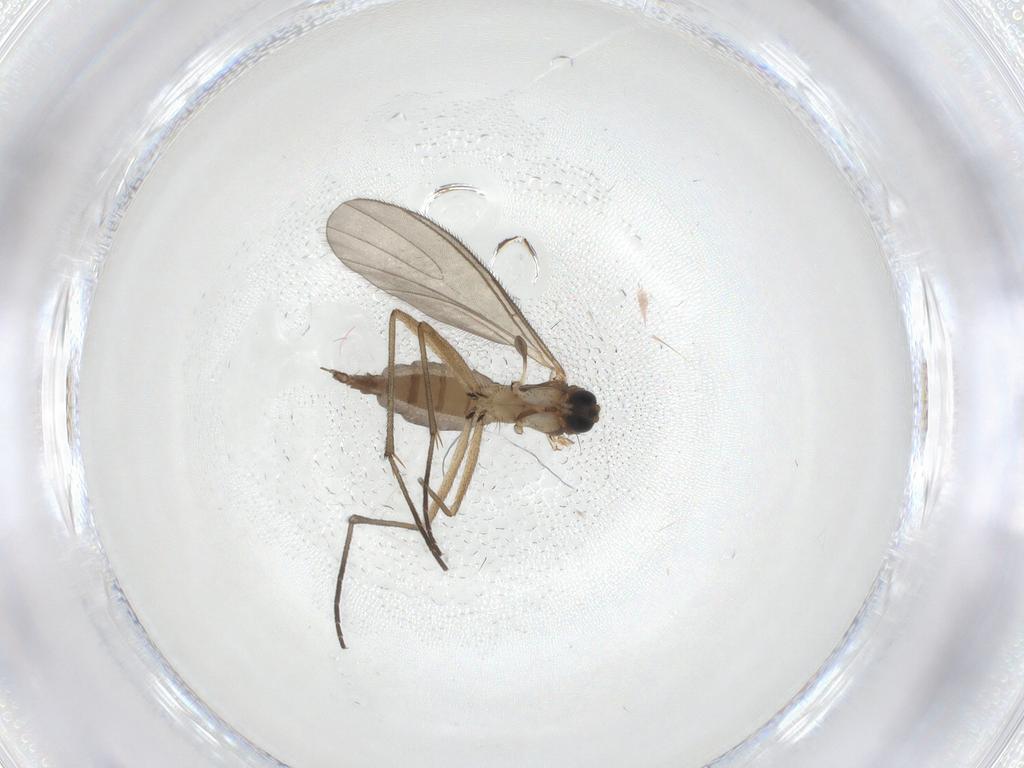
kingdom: Animalia
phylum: Arthropoda
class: Insecta
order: Diptera
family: Sciaridae
